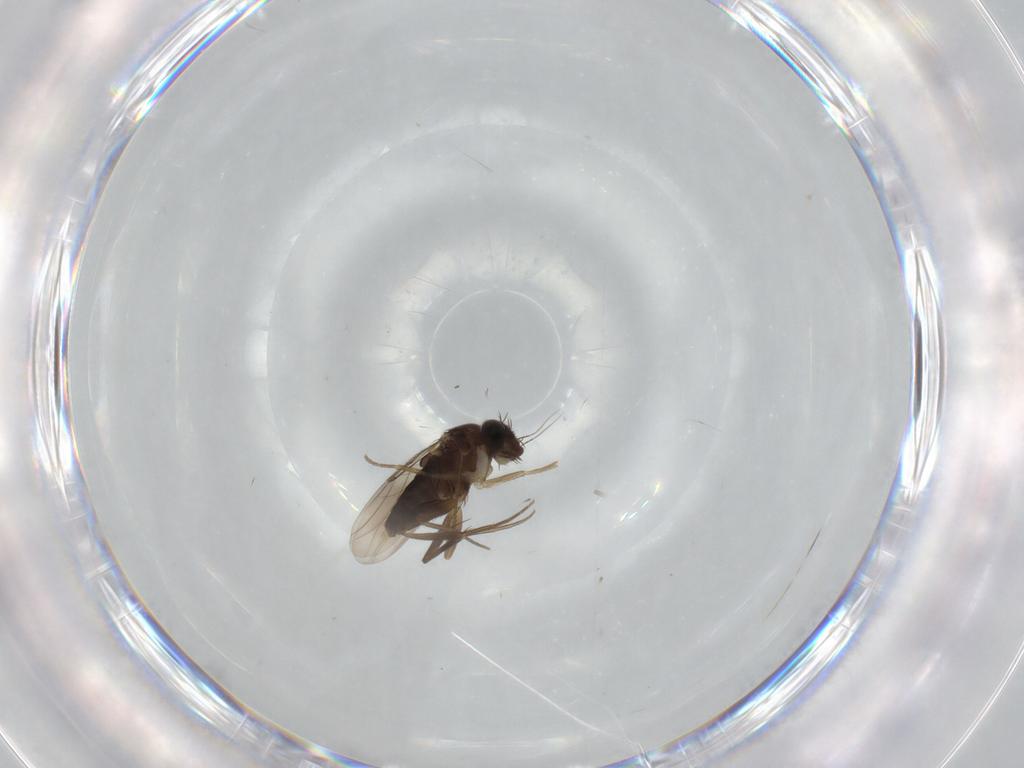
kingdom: Animalia
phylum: Arthropoda
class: Insecta
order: Diptera
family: Phoridae
